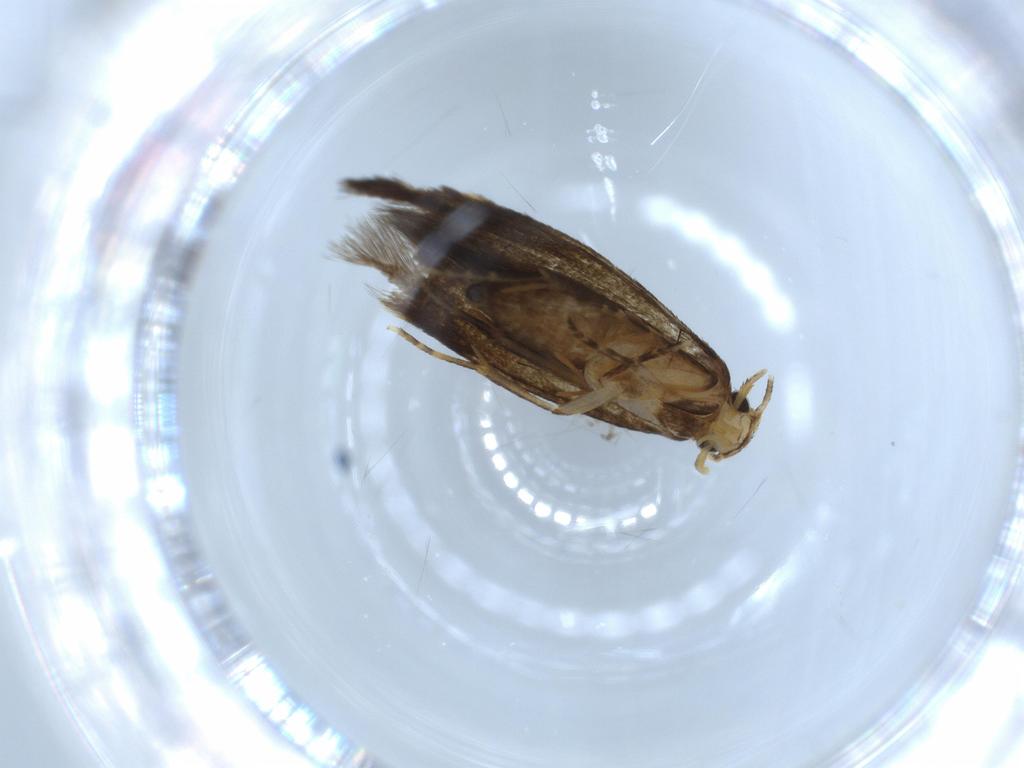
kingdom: Animalia
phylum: Arthropoda
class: Insecta
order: Lepidoptera
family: Tineidae
